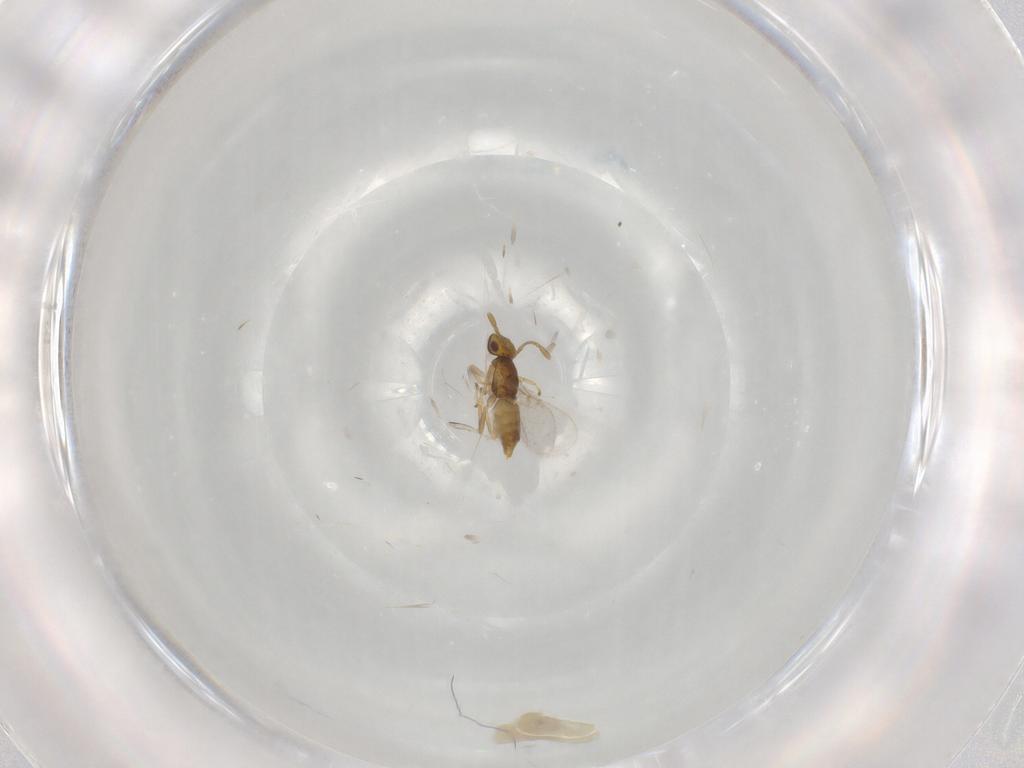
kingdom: Animalia
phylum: Arthropoda
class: Insecta
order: Hymenoptera
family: Encyrtidae
